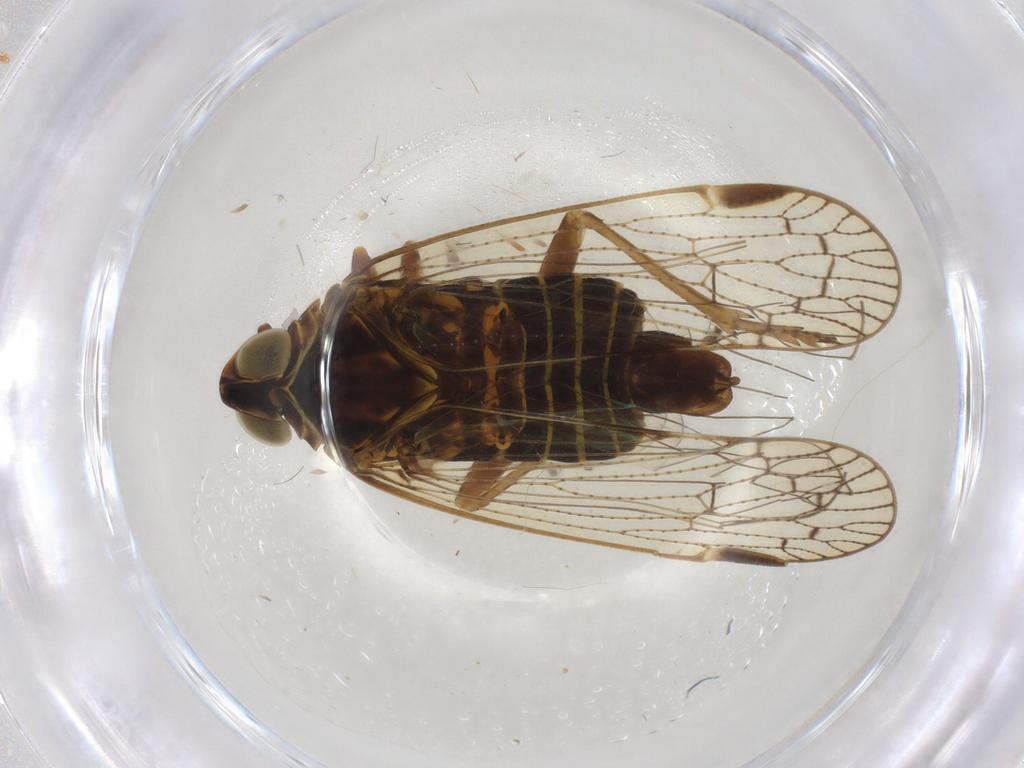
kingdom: Animalia
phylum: Arthropoda
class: Insecta
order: Hemiptera
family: Cixiidae
